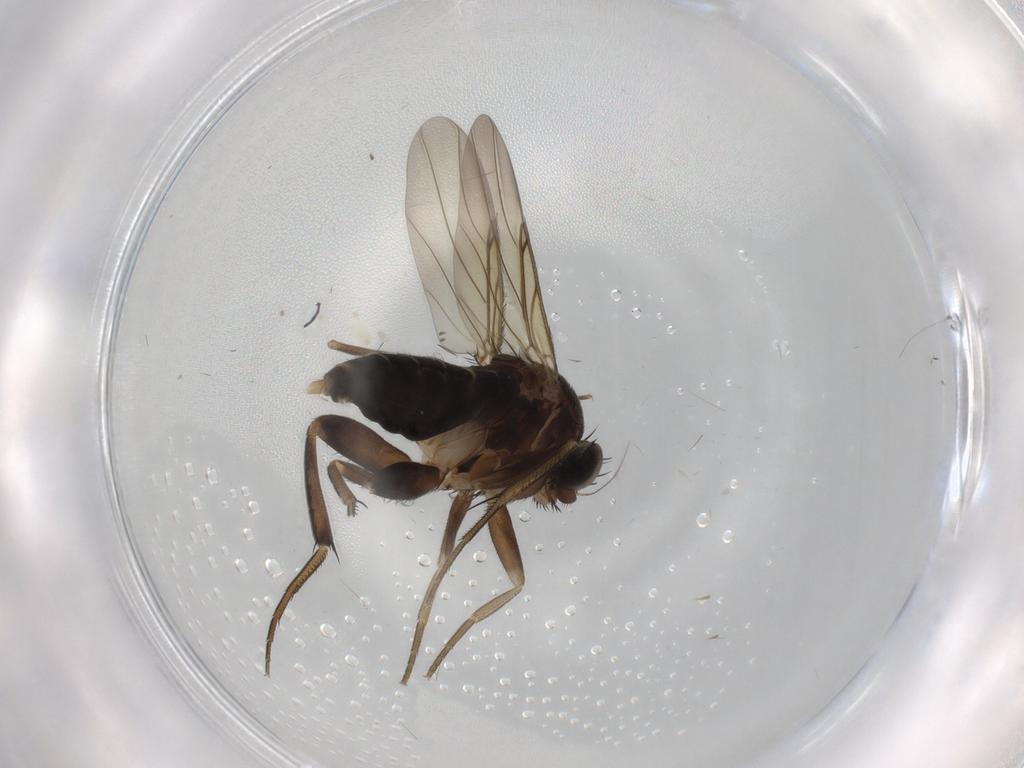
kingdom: Animalia
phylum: Arthropoda
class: Insecta
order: Diptera
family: Phoridae
